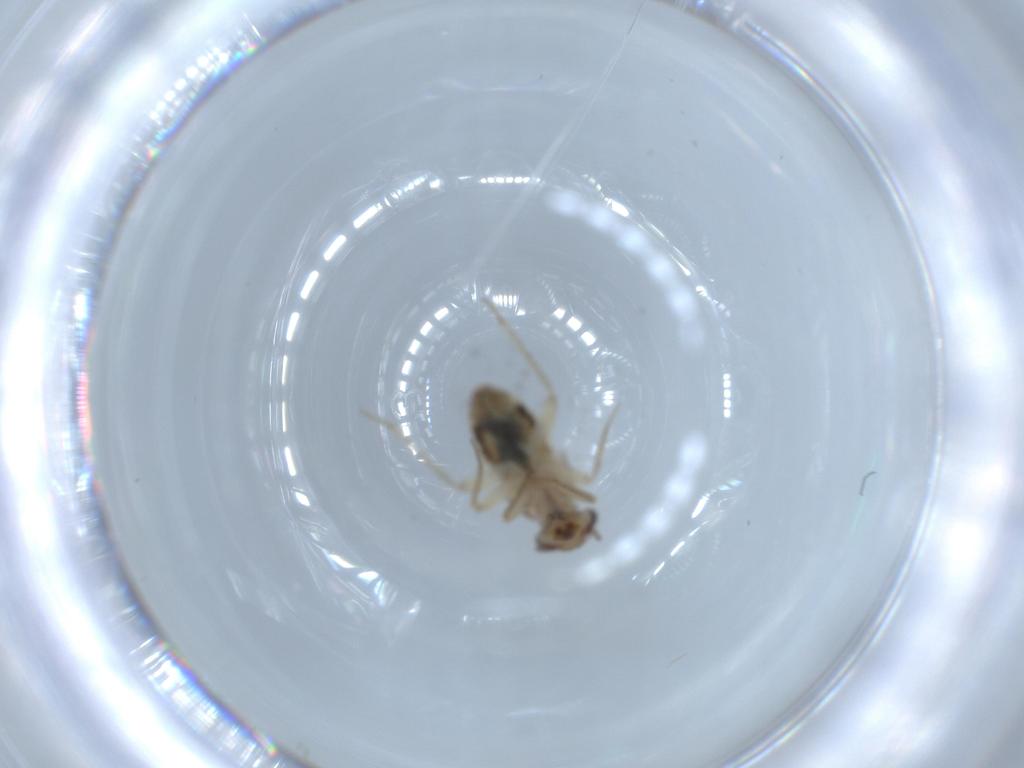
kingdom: Animalia
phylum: Arthropoda
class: Insecta
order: Psocodea
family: Lepidopsocidae
